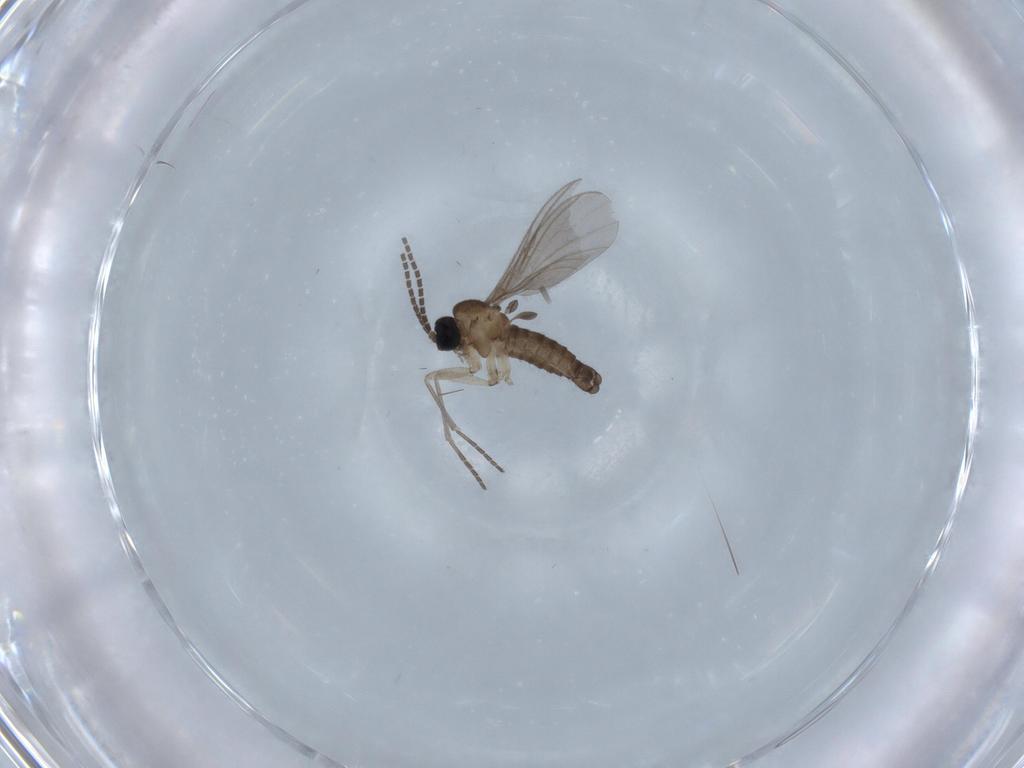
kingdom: Animalia
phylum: Arthropoda
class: Insecta
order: Diptera
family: Sciaridae
